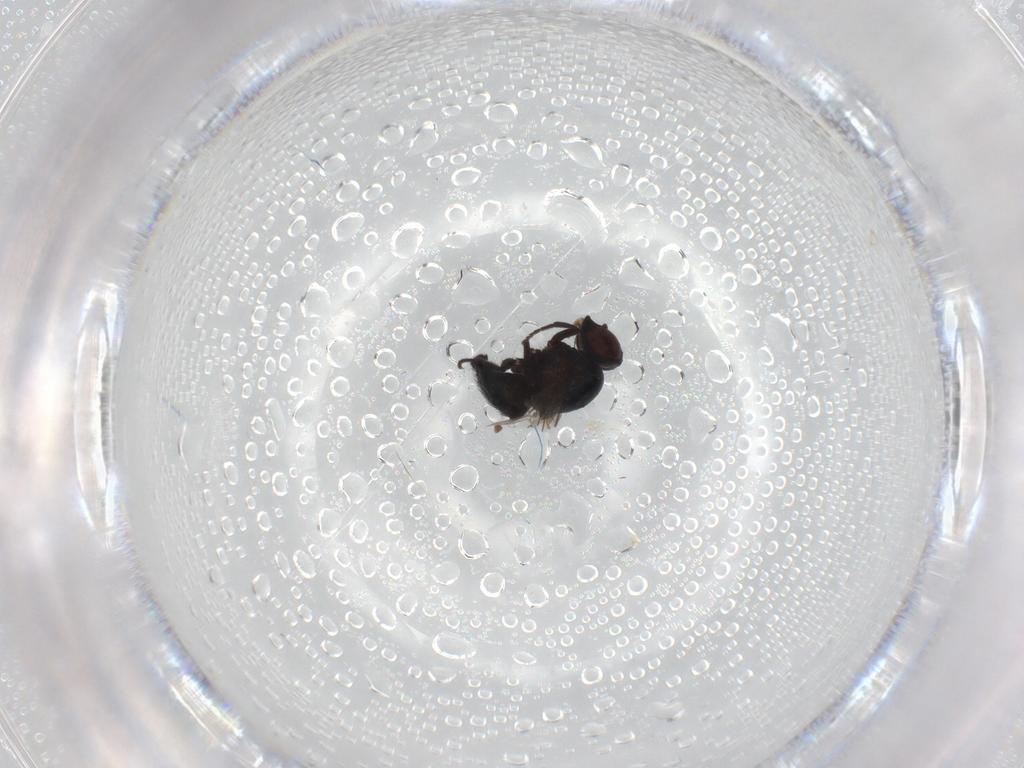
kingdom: Animalia
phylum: Arthropoda
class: Insecta
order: Diptera
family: Agromyzidae
